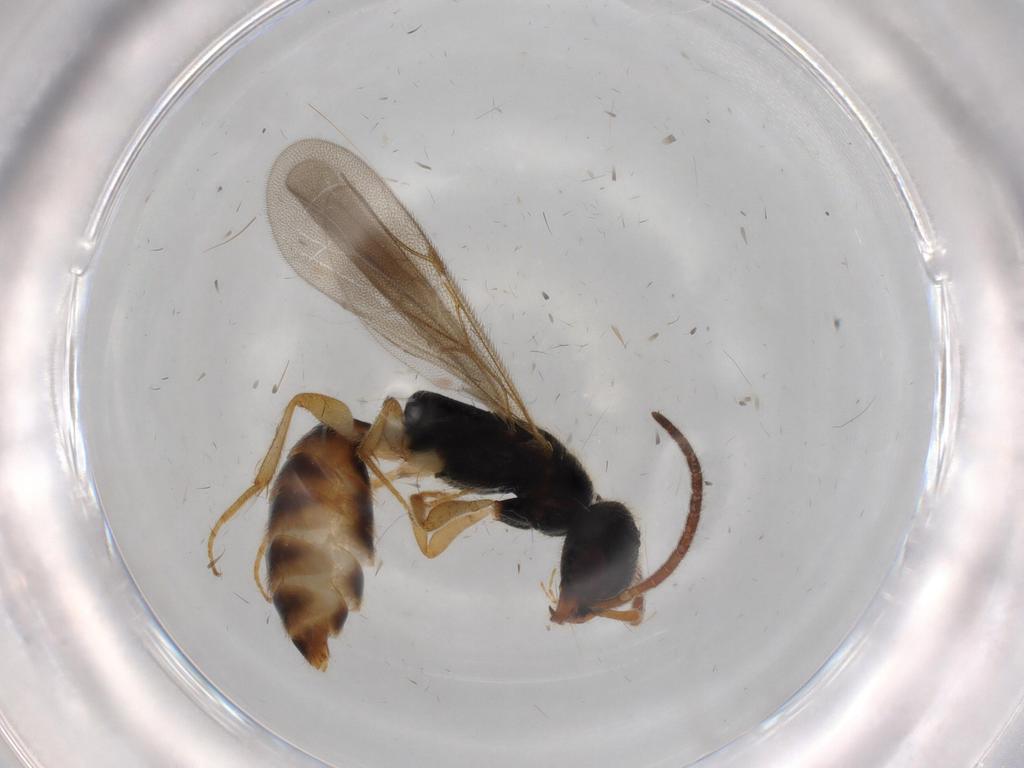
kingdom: Animalia
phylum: Arthropoda
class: Insecta
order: Hymenoptera
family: Bethylidae
